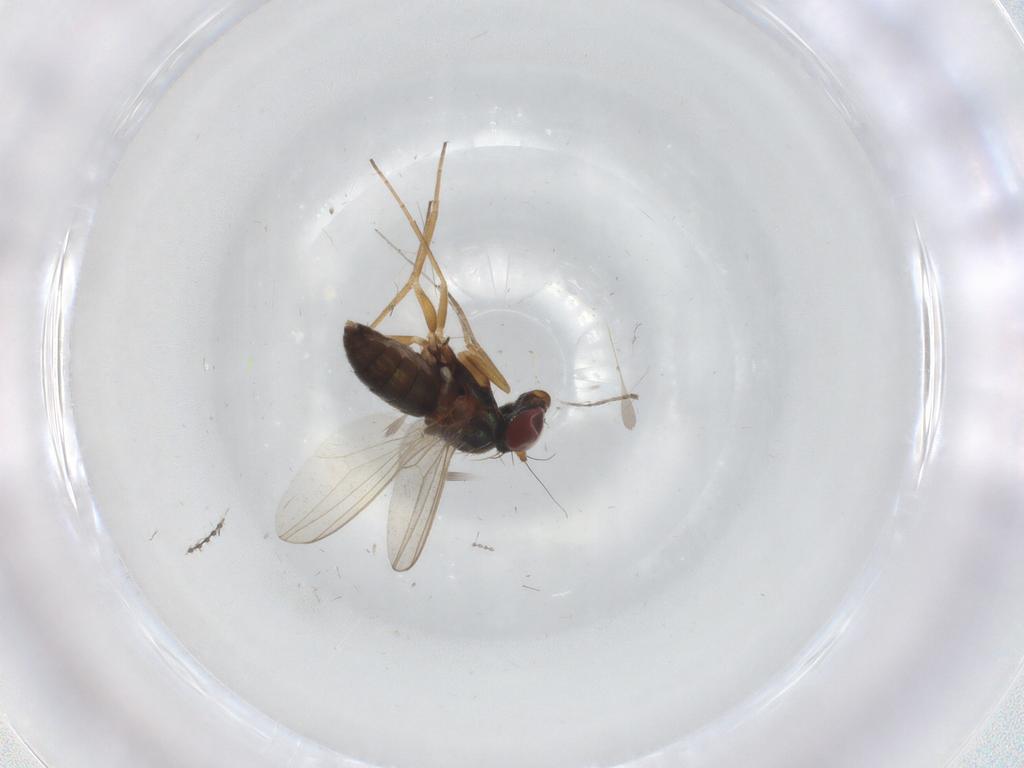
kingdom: Animalia
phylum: Arthropoda
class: Insecta
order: Diptera
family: Dolichopodidae
